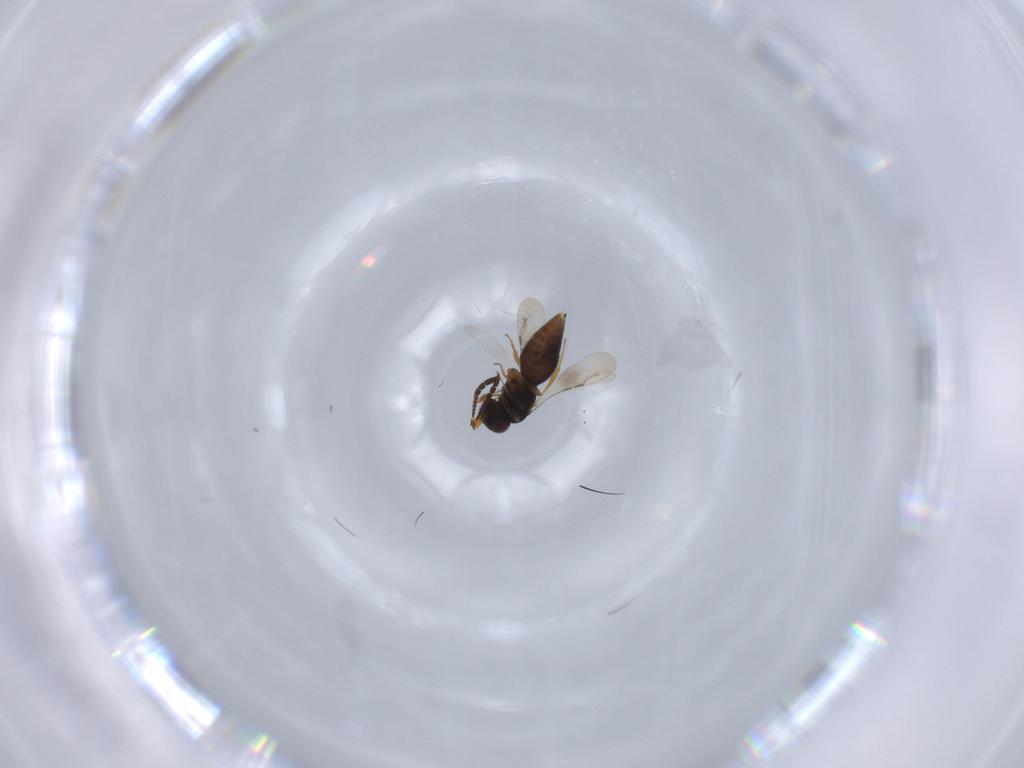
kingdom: Animalia
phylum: Arthropoda
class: Insecta
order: Hymenoptera
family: Ceraphronidae
